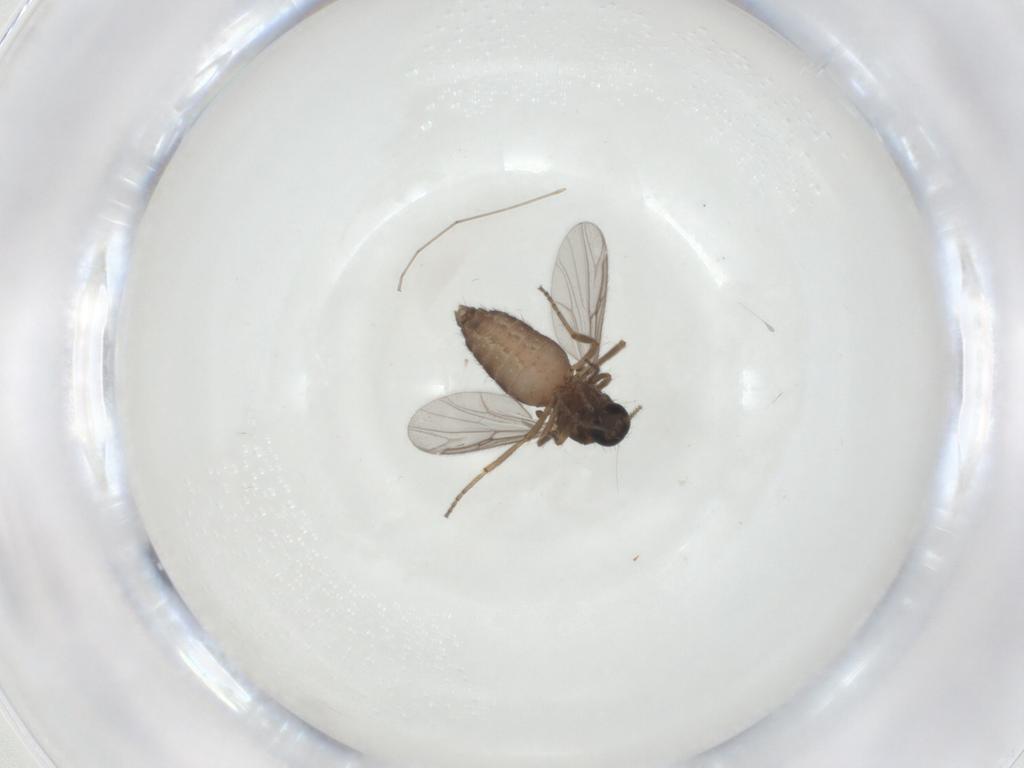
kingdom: Animalia
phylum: Arthropoda
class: Insecta
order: Diptera
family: Ceratopogonidae
